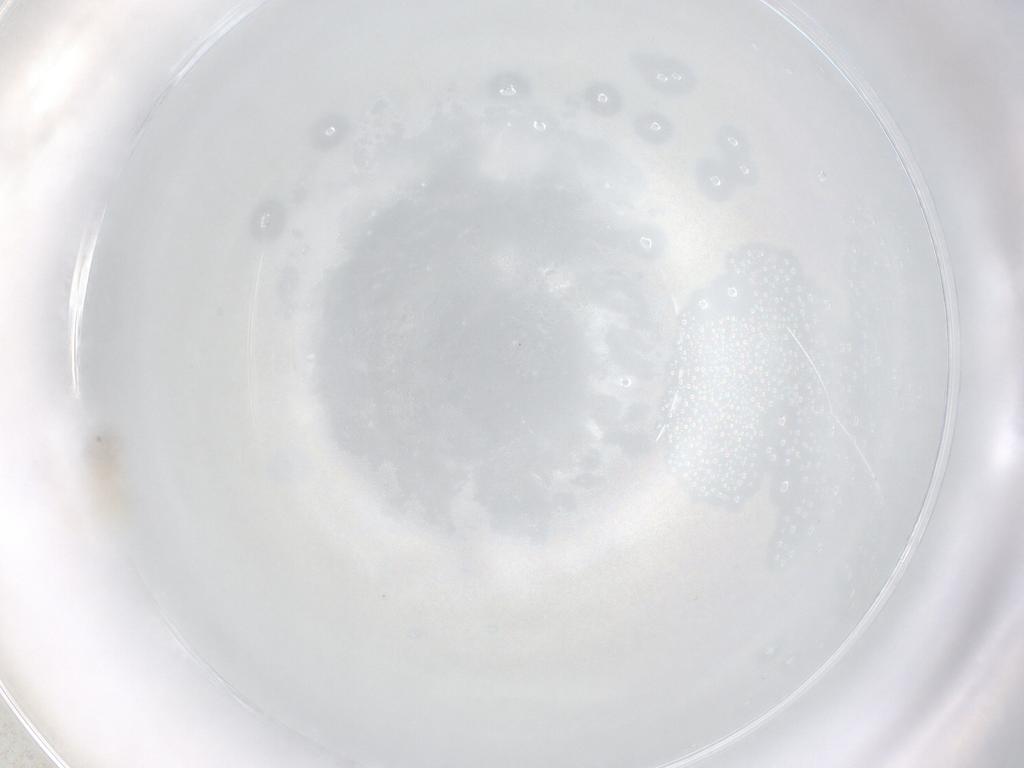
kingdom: Animalia
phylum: Arthropoda
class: Insecta
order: Diptera
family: Cecidomyiidae
